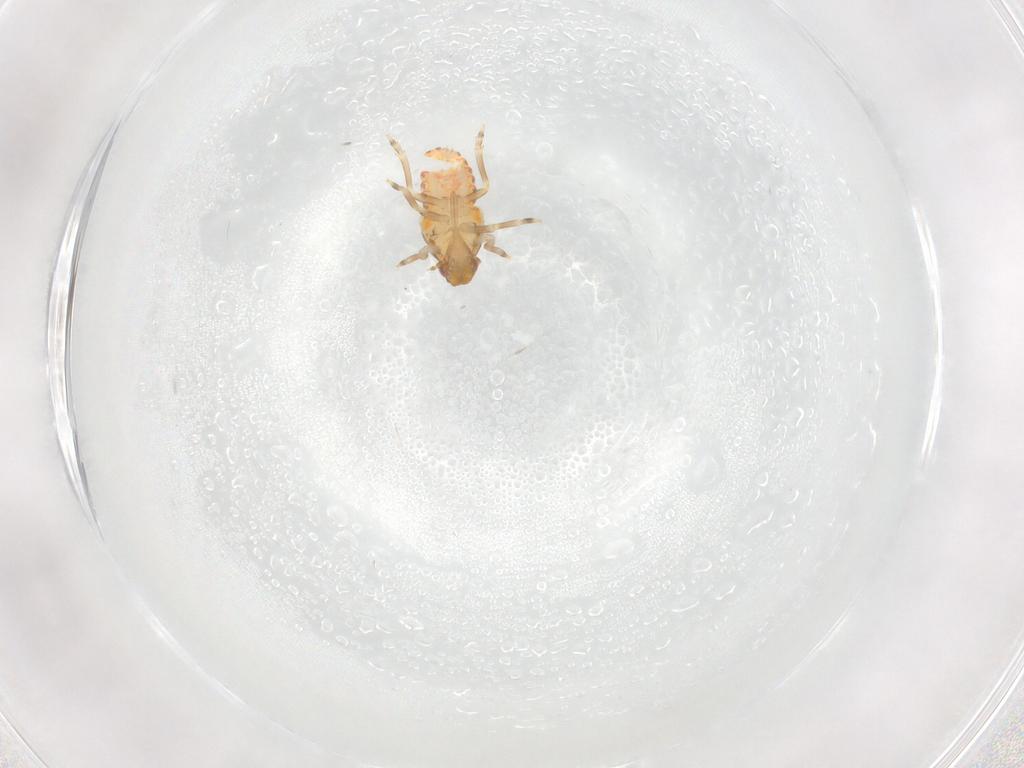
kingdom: Animalia
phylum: Arthropoda
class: Insecta
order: Hemiptera
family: Flatidae
